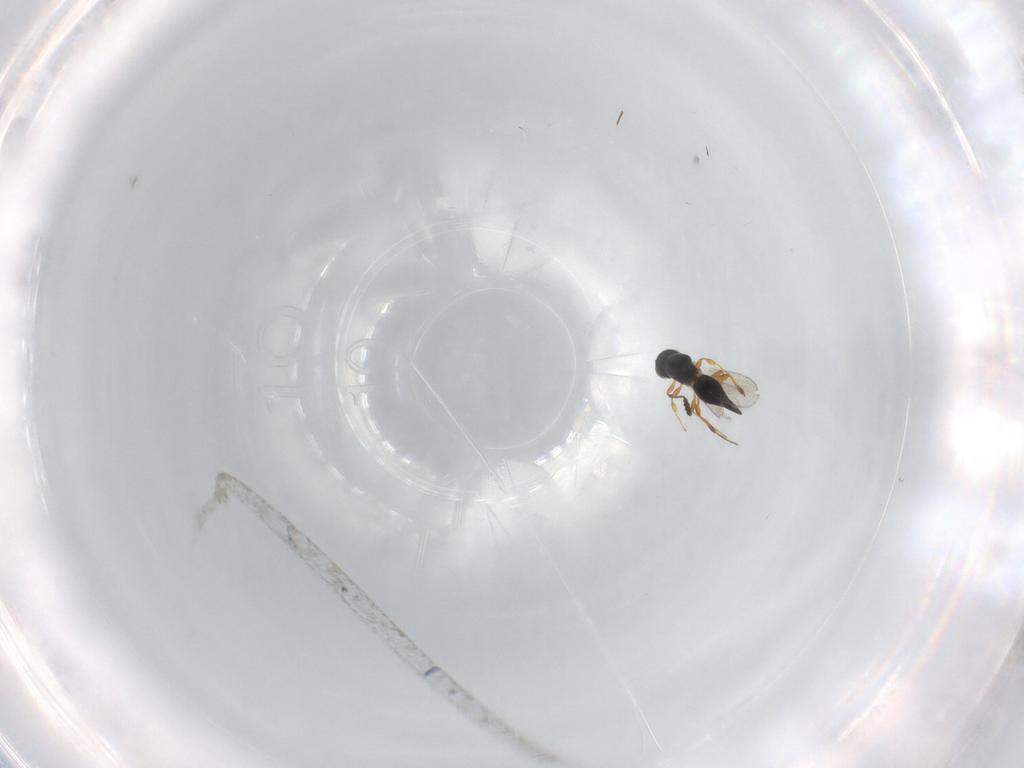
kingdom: Animalia
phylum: Arthropoda
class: Insecta
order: Hymenoptera
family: Platygastridae
